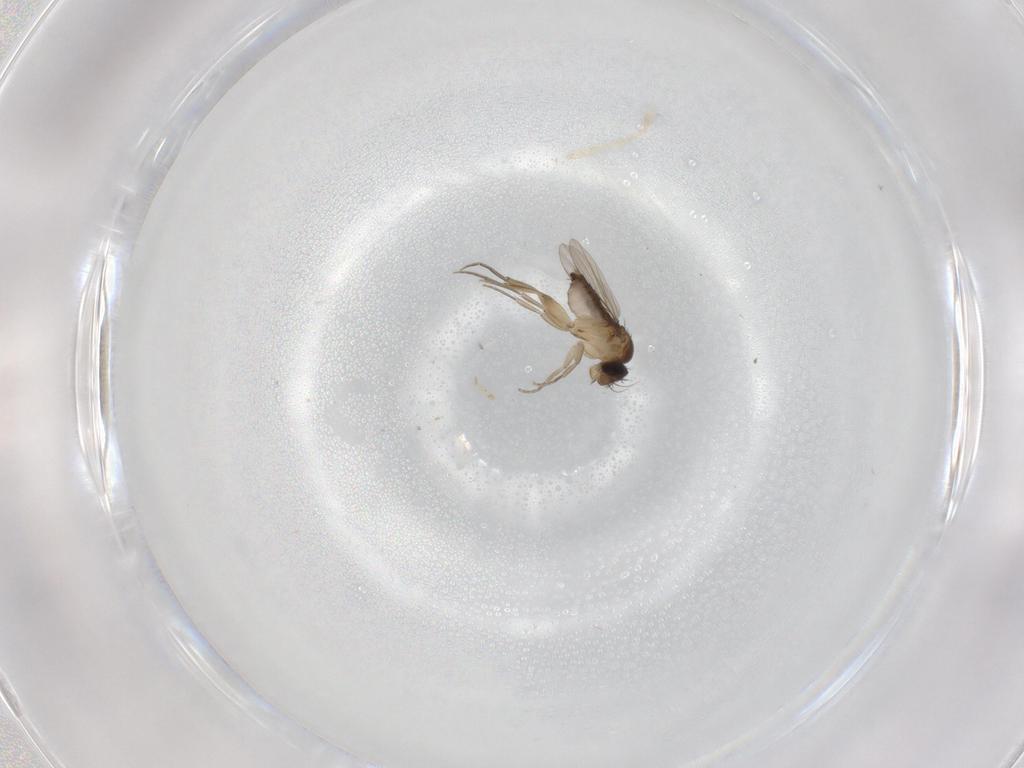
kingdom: Animalia
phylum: Arthropoda
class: Insecta
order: Diptera
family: Phoridae
